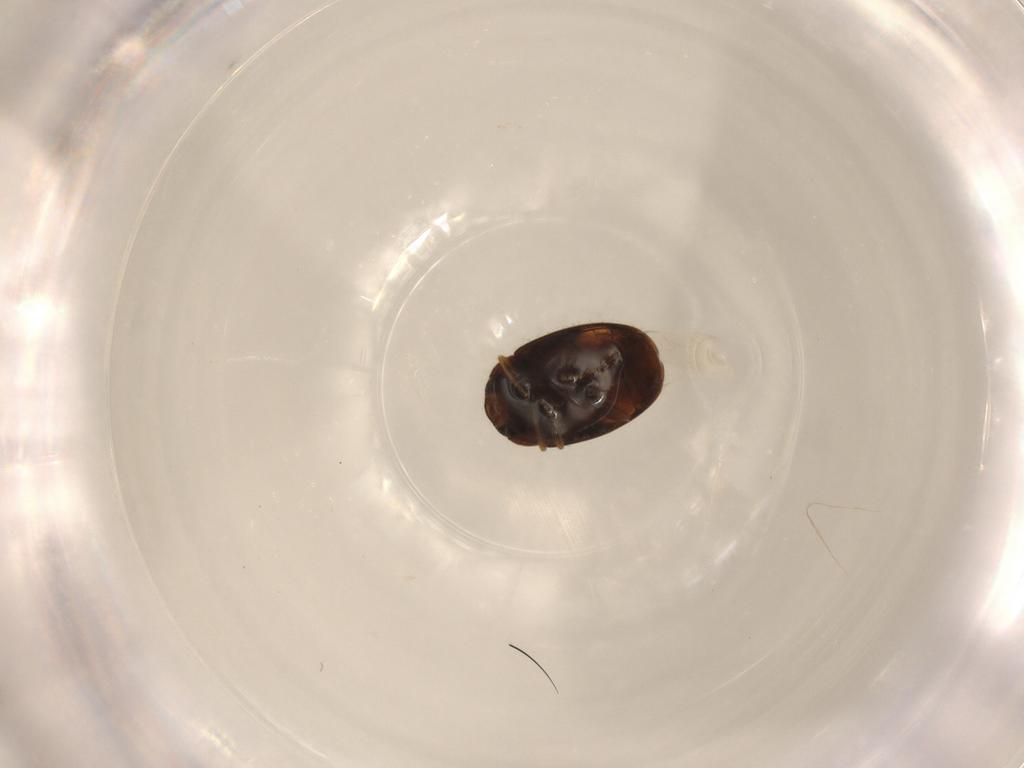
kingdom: Animalia
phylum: Arthropoda
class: Insecta
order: Coleoptera
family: Coccinellidae
